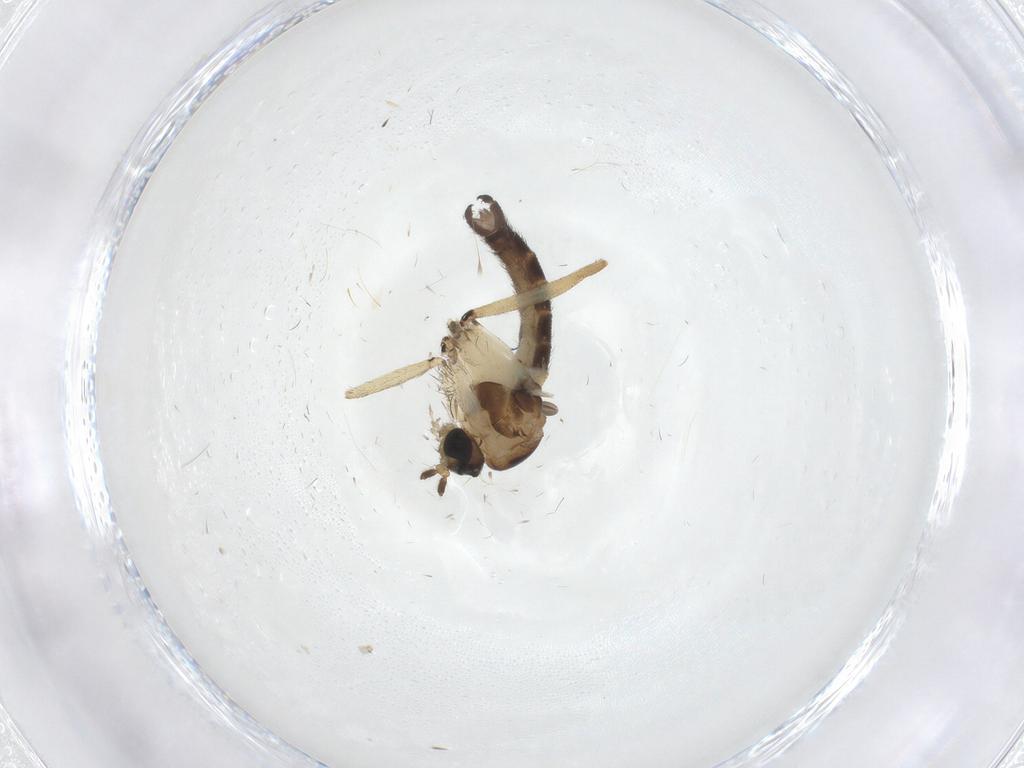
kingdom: Animalia
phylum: Arthropoda
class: Insecta
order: Diptera
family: Sciaridae
